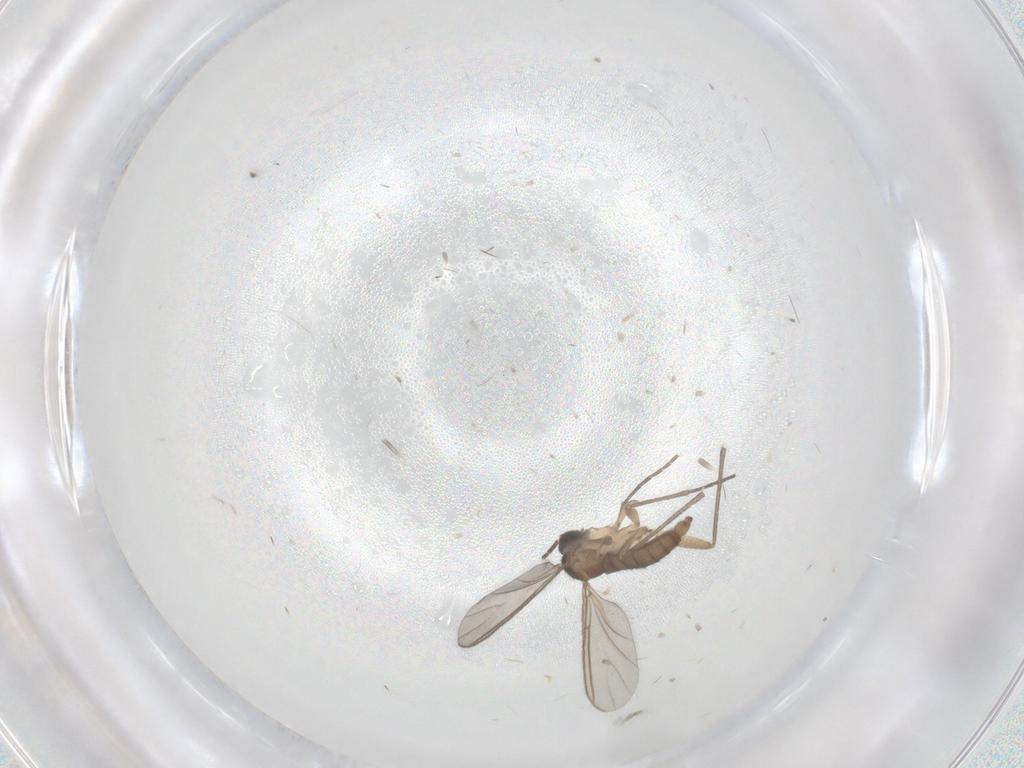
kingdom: Animalia
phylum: Arthropoda
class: Insecta
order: Diptera
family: Sciaridae
